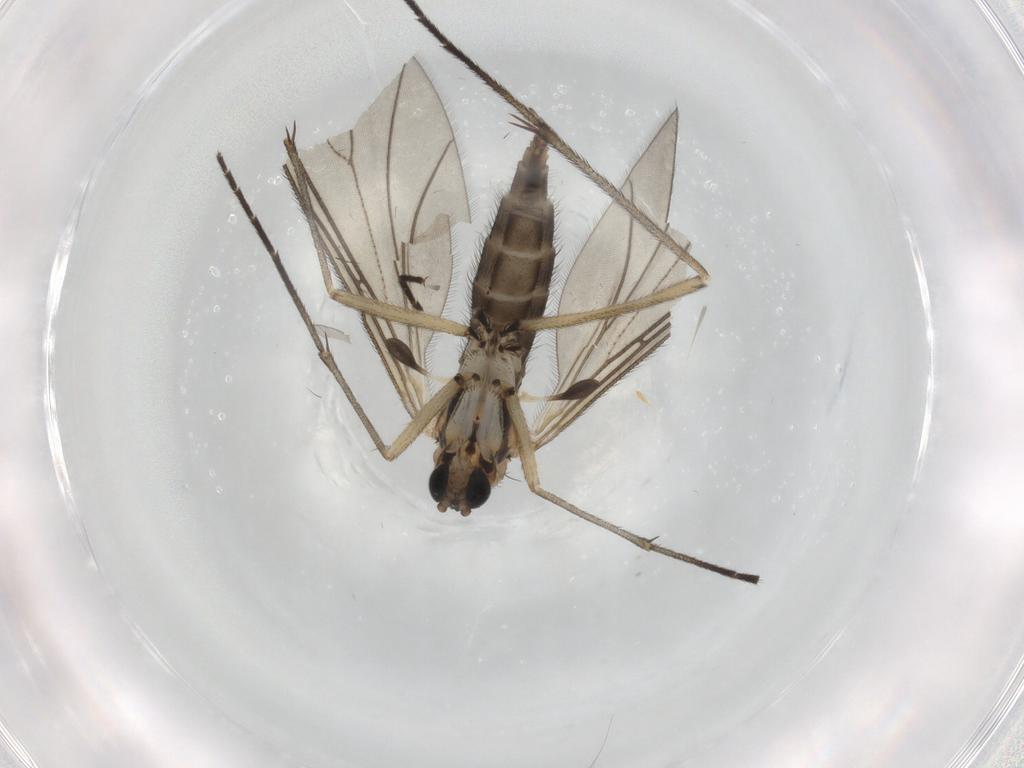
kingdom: Animalia
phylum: Arthropoda
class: Insecta
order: Diptera
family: Sciaridae
